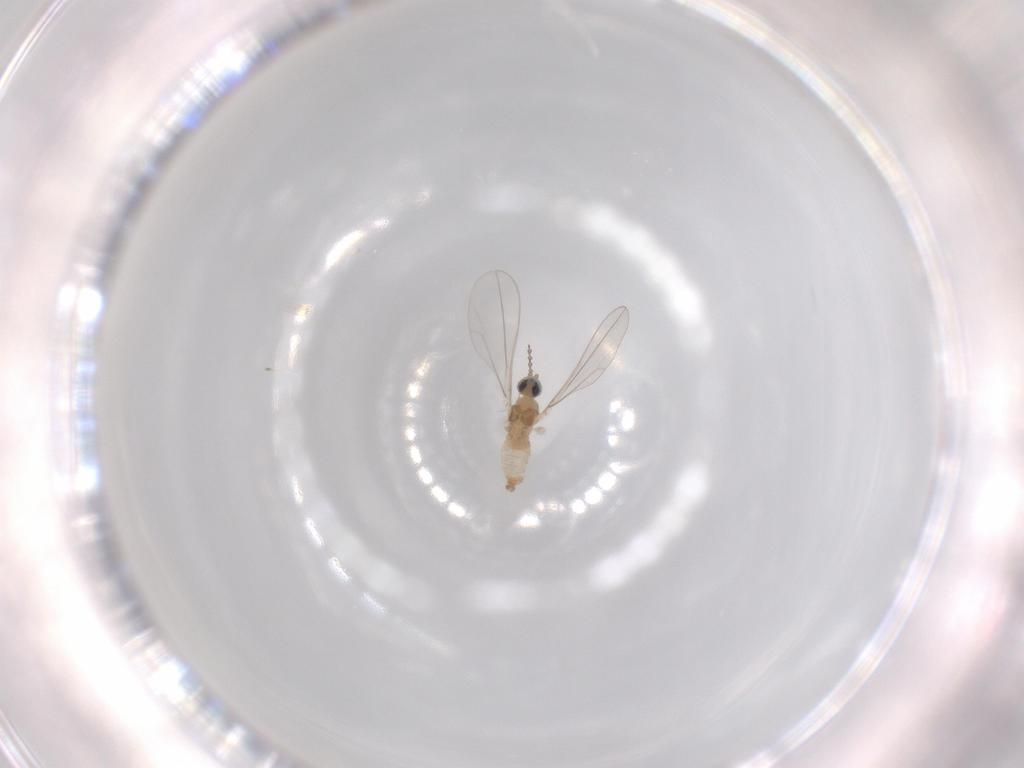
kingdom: Animalia
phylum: Arthropoda
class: Insecta
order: Diptera
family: Cecidomyiidae
